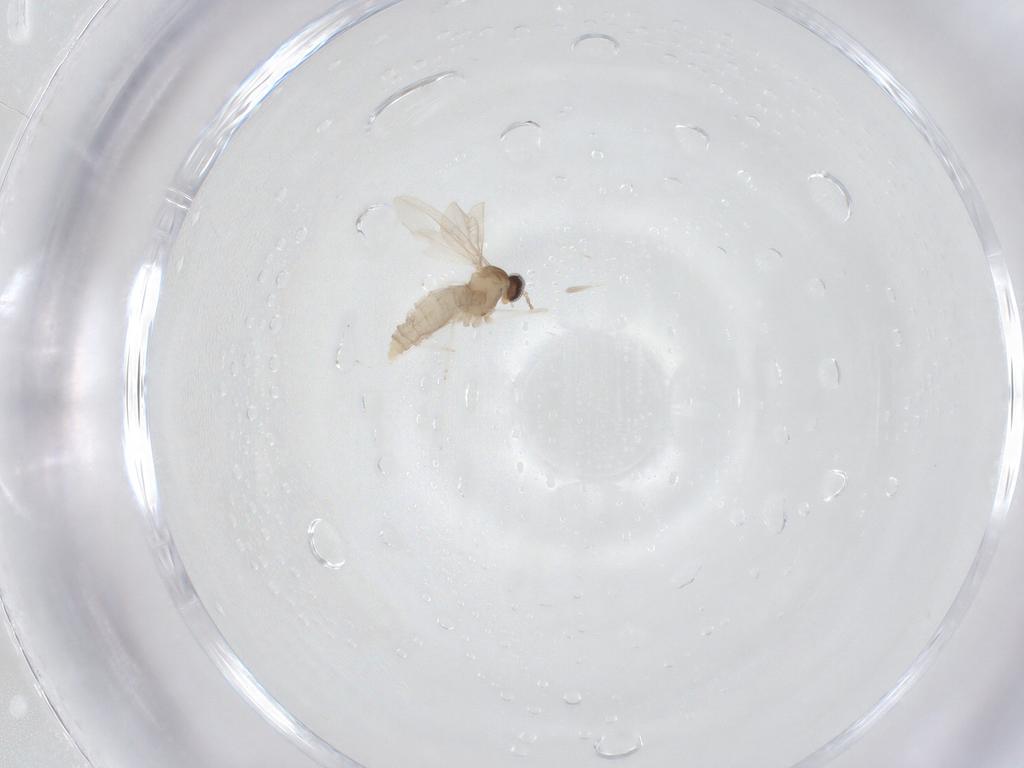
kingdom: Animalia
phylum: Arthropoda
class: Insecta
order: Diptera
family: Cecidomyiidae
